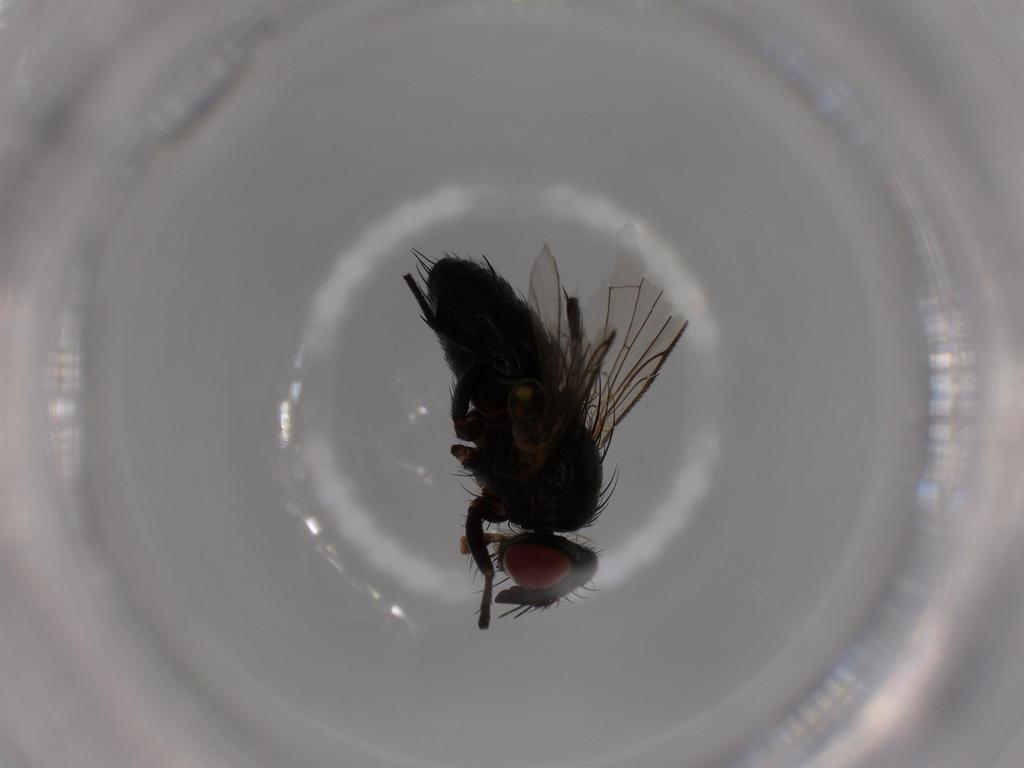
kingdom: Animalia
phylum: Arthropoda
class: Insecta
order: Diptera
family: Tachinidae
